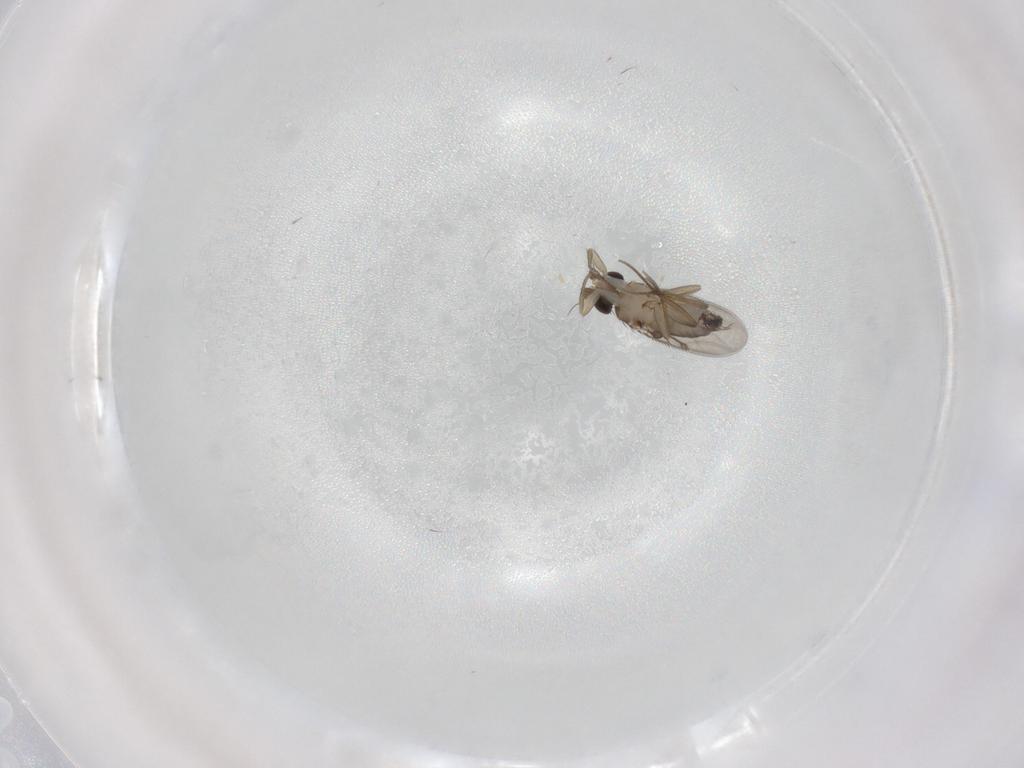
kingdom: Animalia
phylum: Arthropoda
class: Insecta
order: Diptera
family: Phoridae
